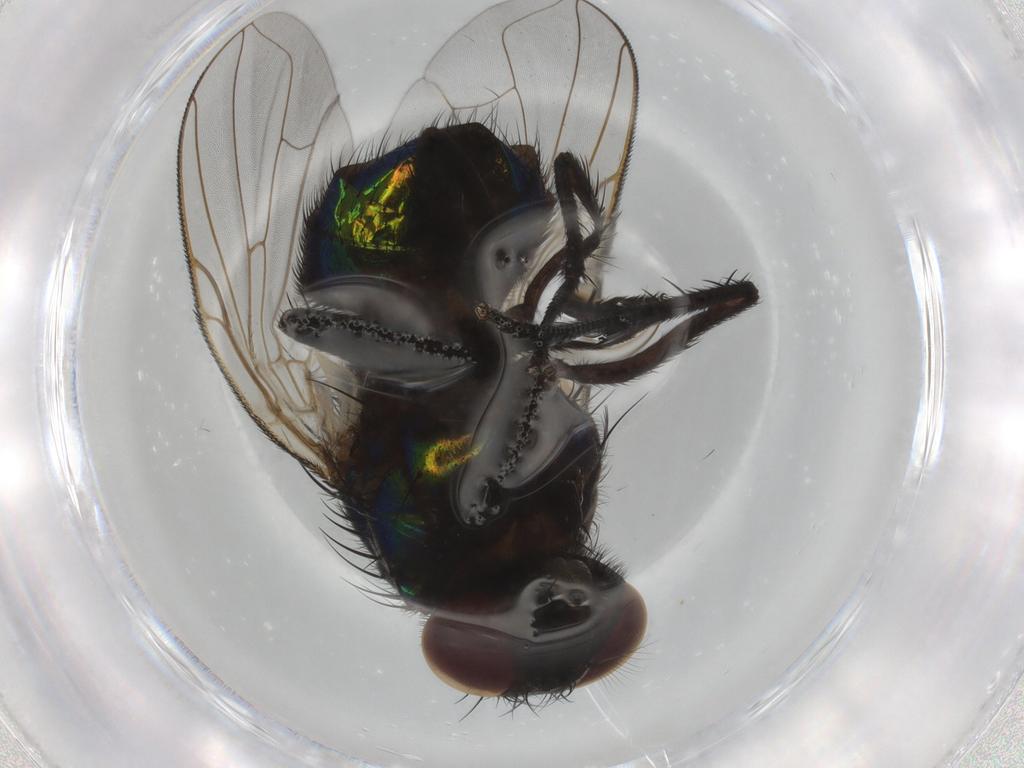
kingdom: Animalia
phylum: Arthropoda
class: Insecta
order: Diptera
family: Muscidae
